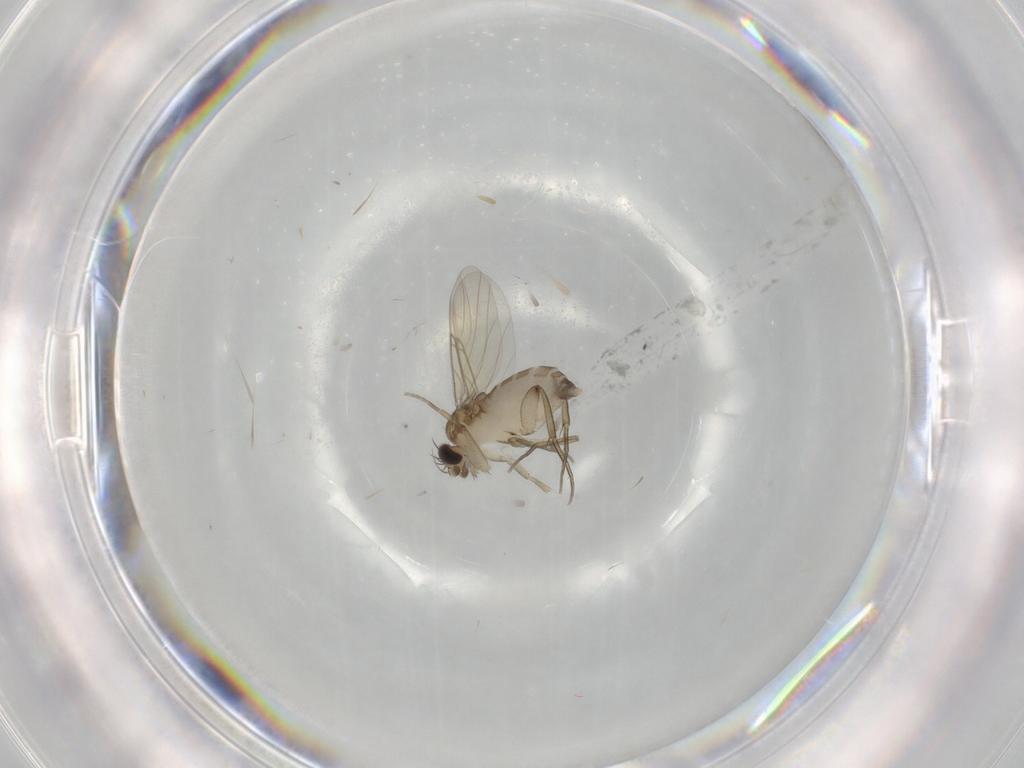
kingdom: Animalia
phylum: Arthropoda
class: Insecta
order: Diptera
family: Phoridae
